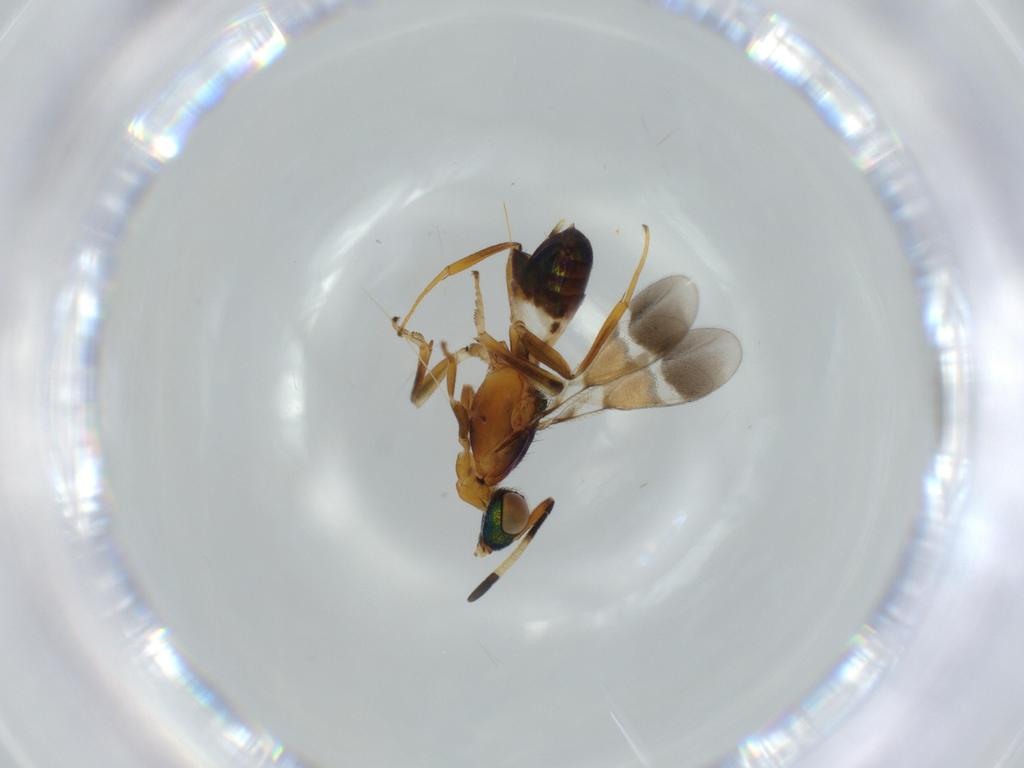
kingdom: Animalia
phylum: Arthropoda
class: Insecta
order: Hymenoptera
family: Eupelmidae
